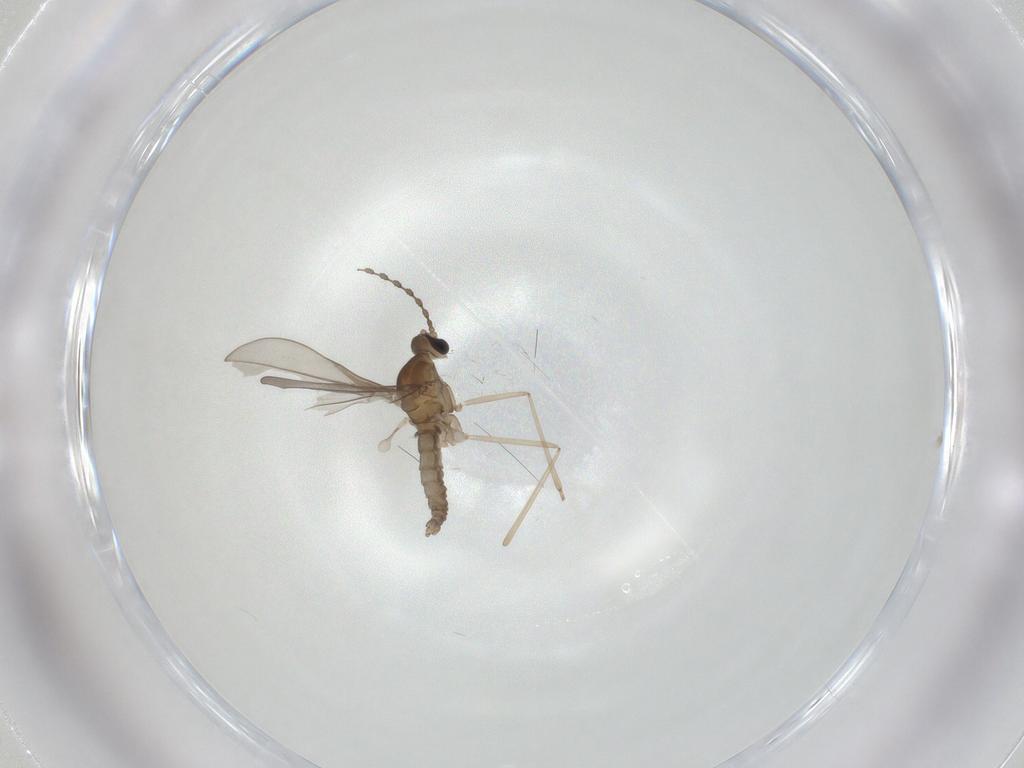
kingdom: Animalia
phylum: Arthropoda
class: Insecta
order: Diptera
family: Cecidomyiidae
